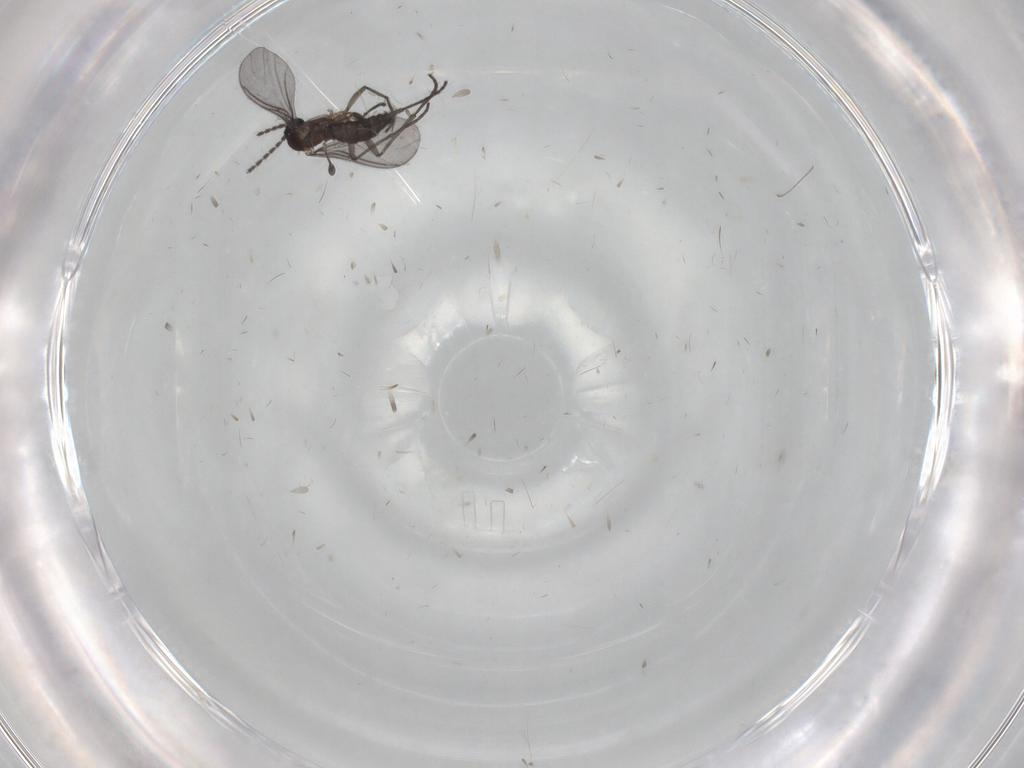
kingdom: Animalia
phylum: Arthropoda
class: Insecta
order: Diptera
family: Sciaridae
